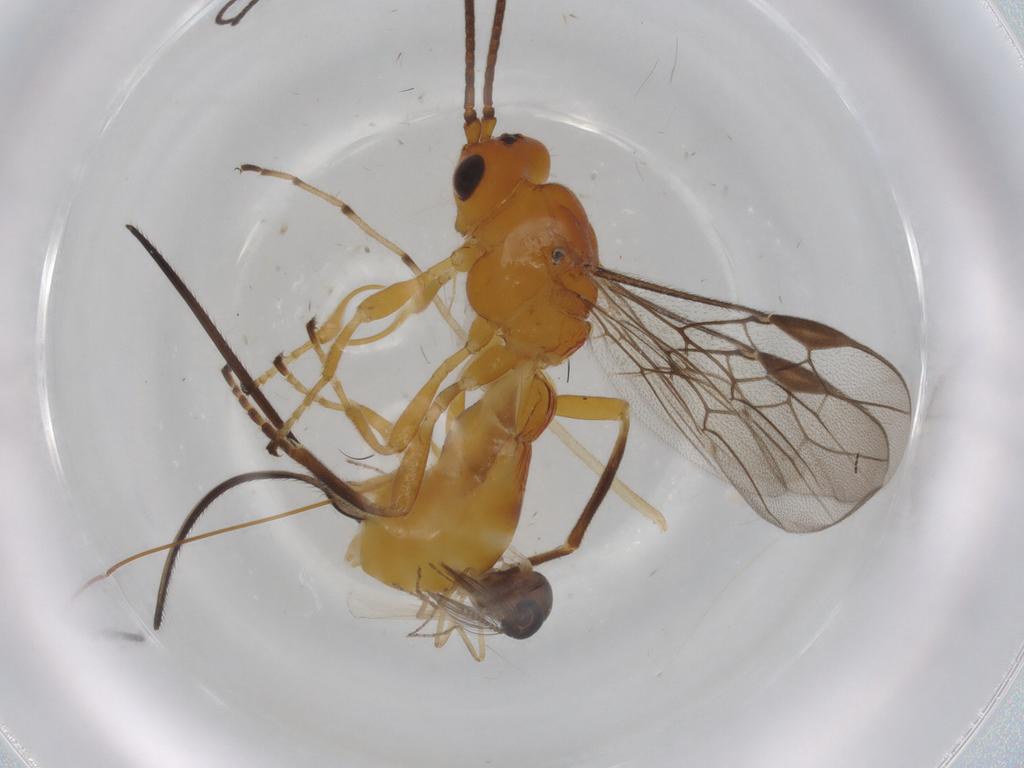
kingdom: Animalia
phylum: Arthropoda
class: Insecta
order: Hymenoptera
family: Braconidae
